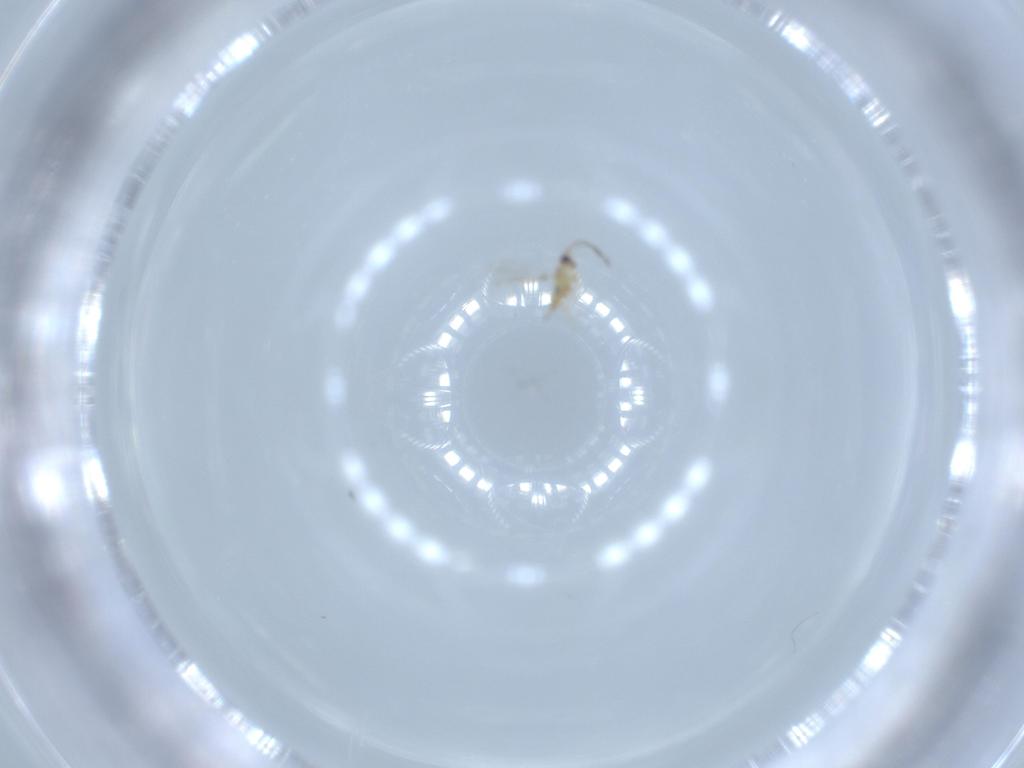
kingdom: Animalia
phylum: Arthropoda
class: Insecta
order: Hymenoptera
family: Mymaridae
